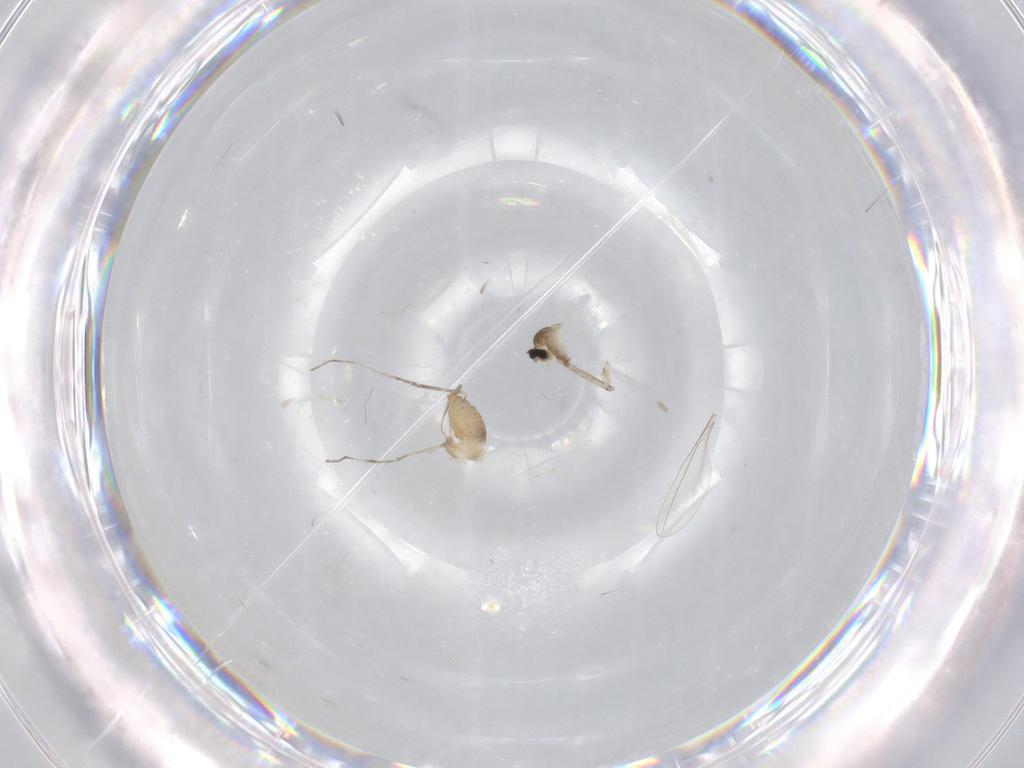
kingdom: Animalia
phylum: Arthropoda
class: Insecta
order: Diptera
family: Cecidomyiidae
